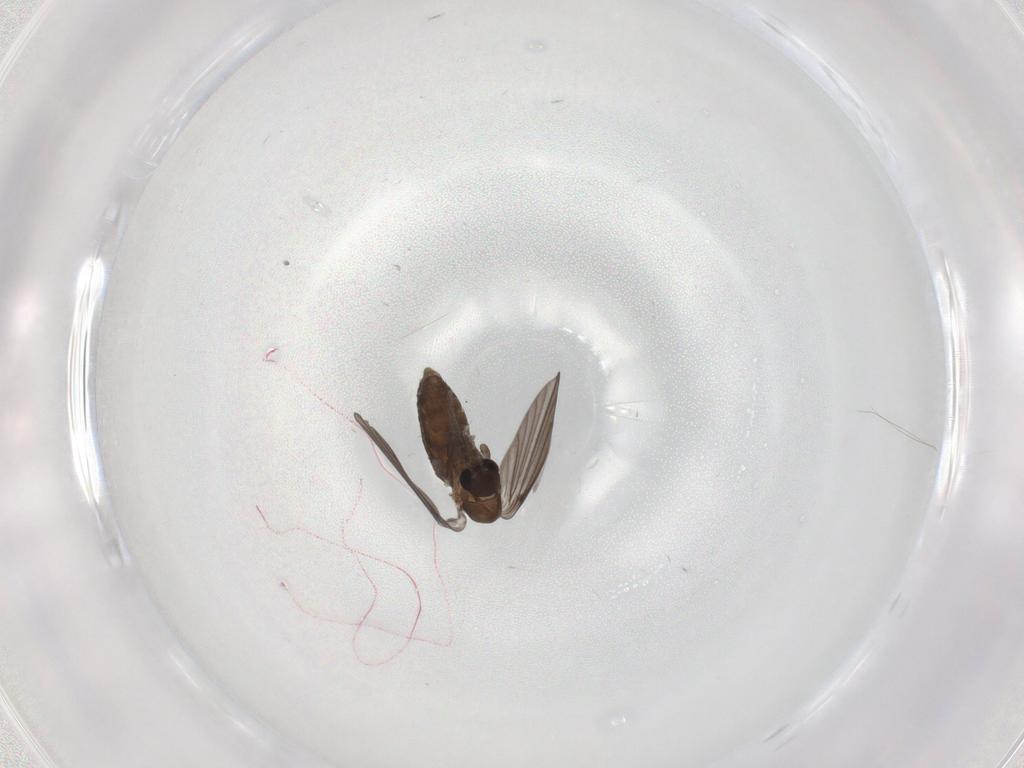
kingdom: Animalia
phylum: Arthropoda
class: Insecta
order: Diptera
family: Psychodidae
